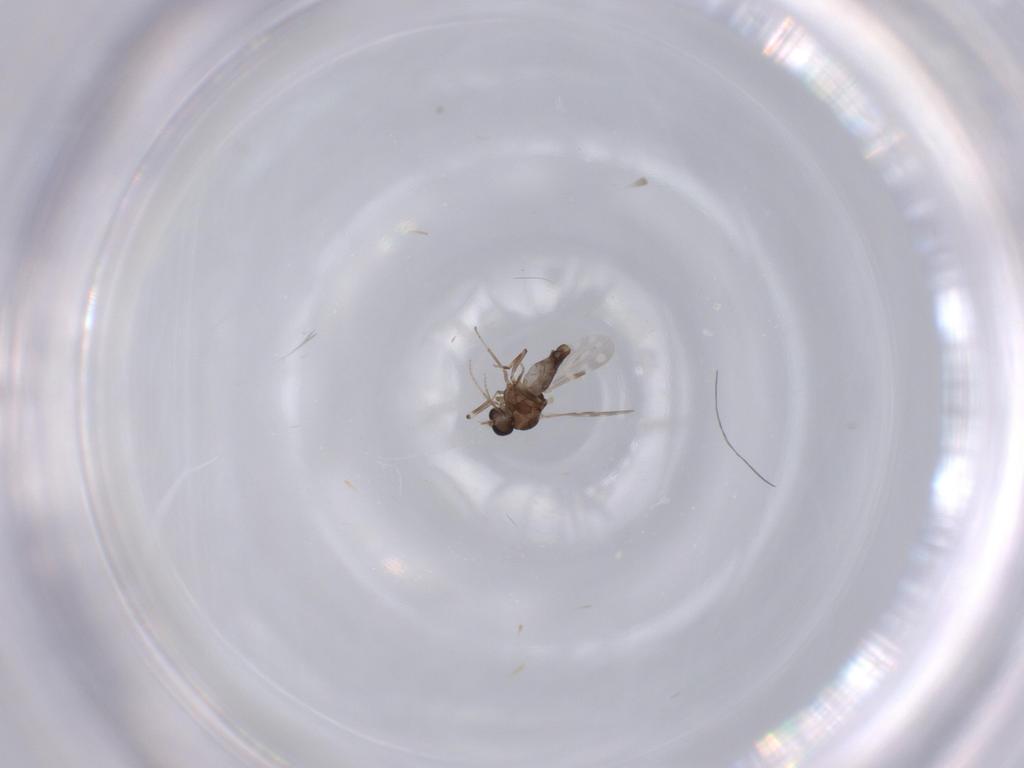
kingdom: Animalia
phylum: Arthropoda
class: Insecta
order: Diptera
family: Ceratopogonidae
